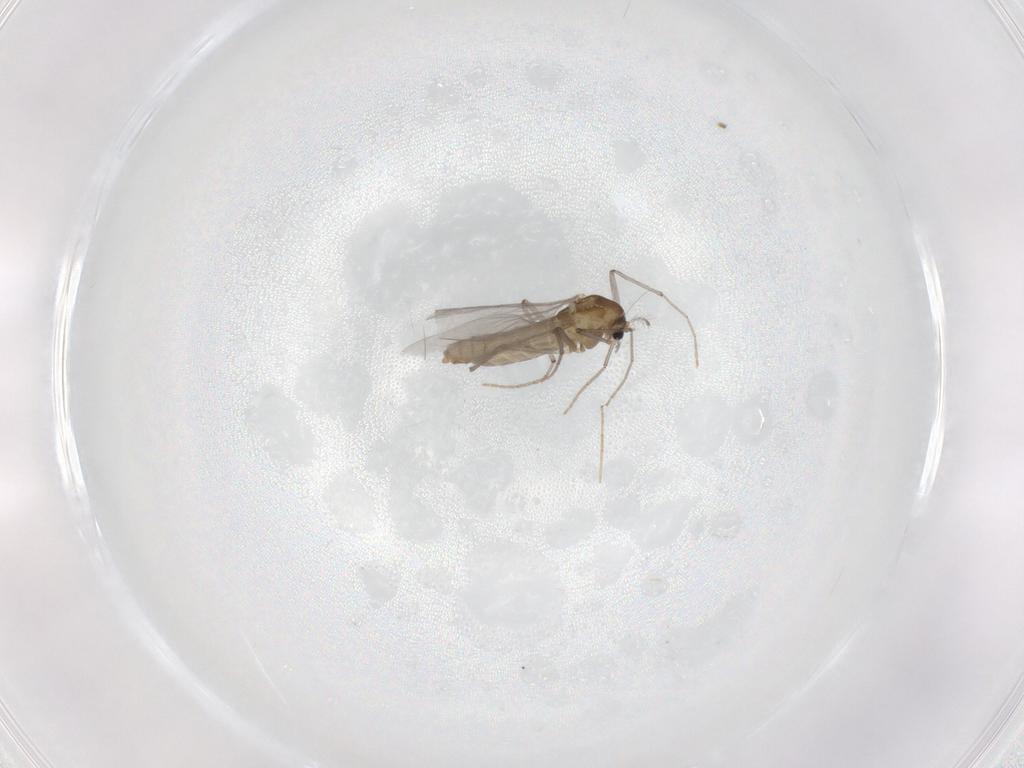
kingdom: Animalia
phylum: Arthropoda
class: Insecta
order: Diptera
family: Chironomidae
